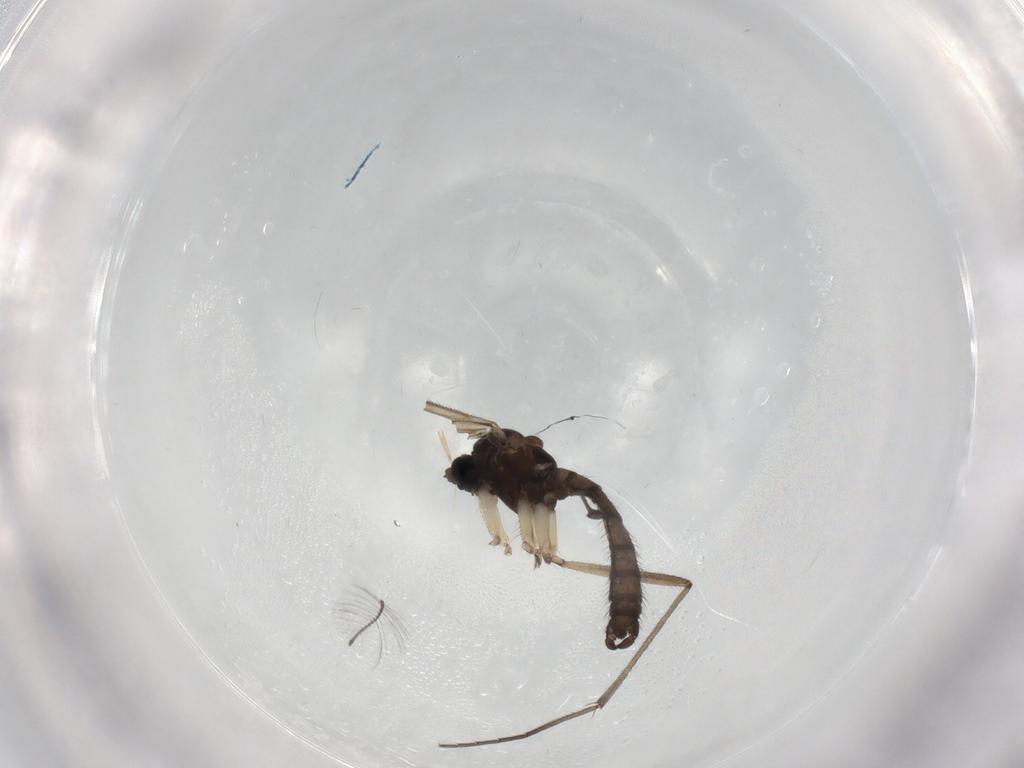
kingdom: Animalia
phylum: Arthropoda
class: Insecta
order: Diptera
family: Sciaridae
